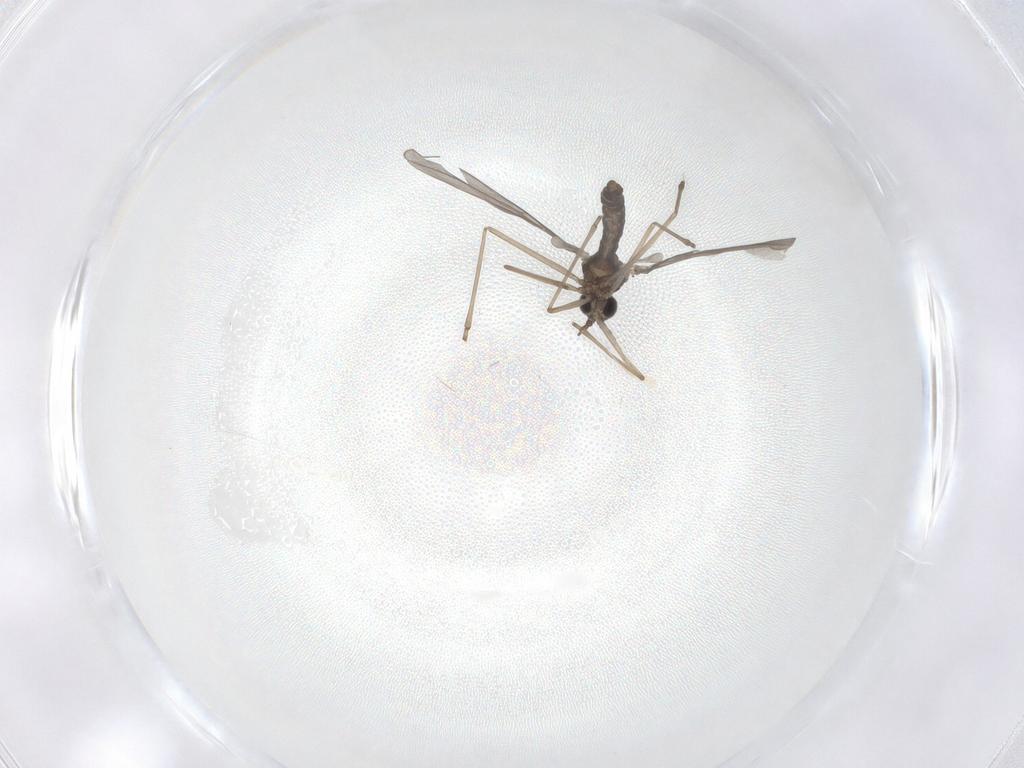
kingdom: Animalia
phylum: Arthropoda
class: Insecta
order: Diptera
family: Cecidomyiidae
